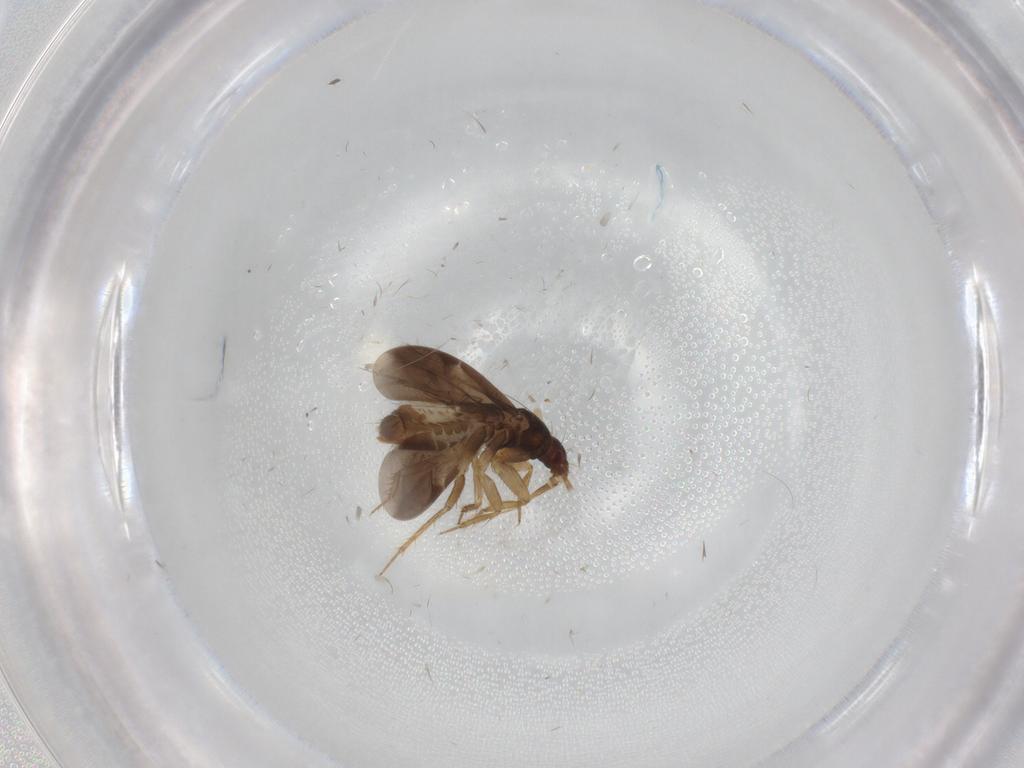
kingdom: Animalia
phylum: Arthropoda
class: Insecta
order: Hemiptera
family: Ceratocombidae
